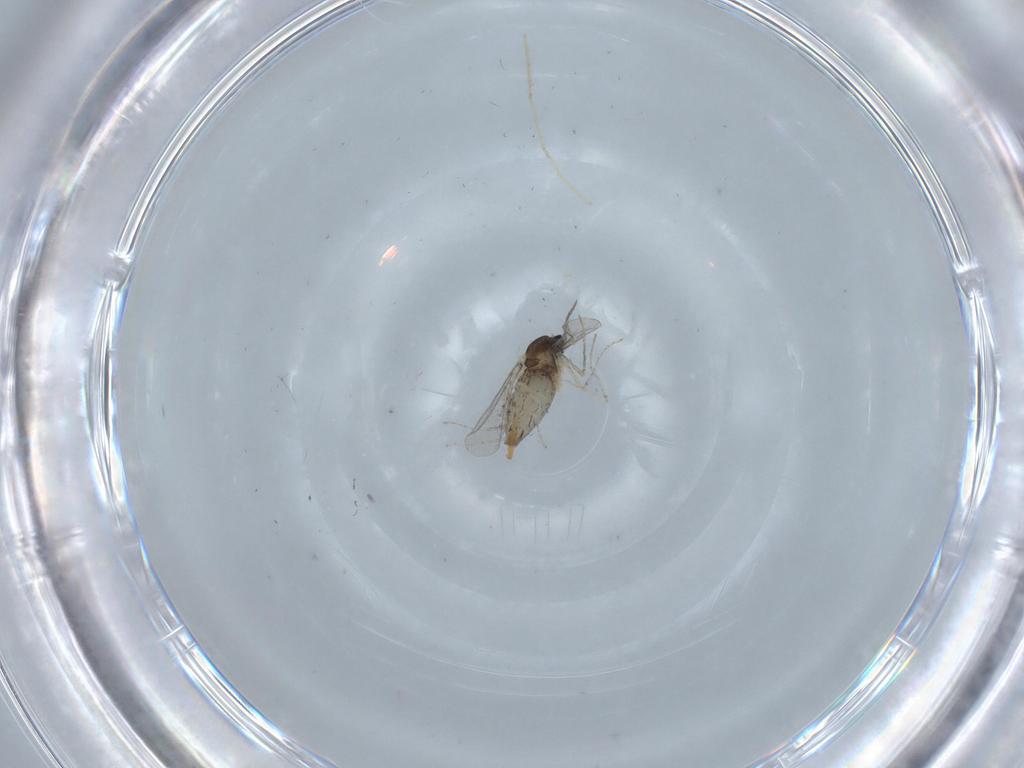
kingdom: Animalia
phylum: Arthropoda
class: Insecta
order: Diptera
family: Cecidomyiidae
